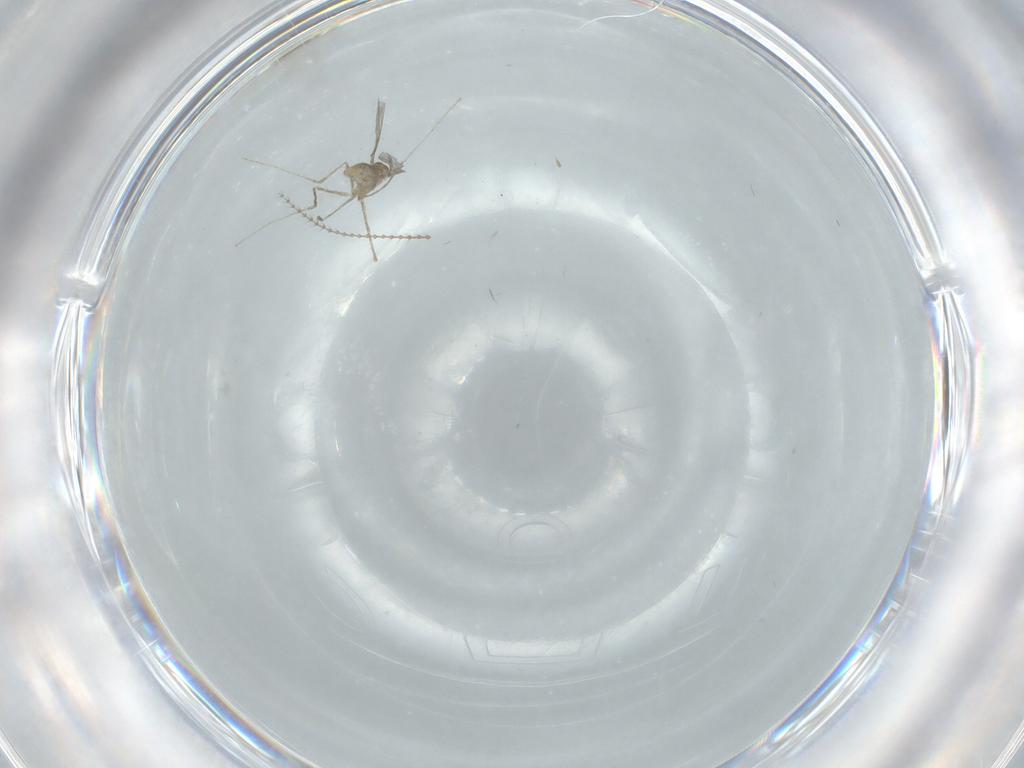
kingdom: Animalia
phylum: Arthropoda
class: Insecta
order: Diptera
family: Cecidomyiidae
